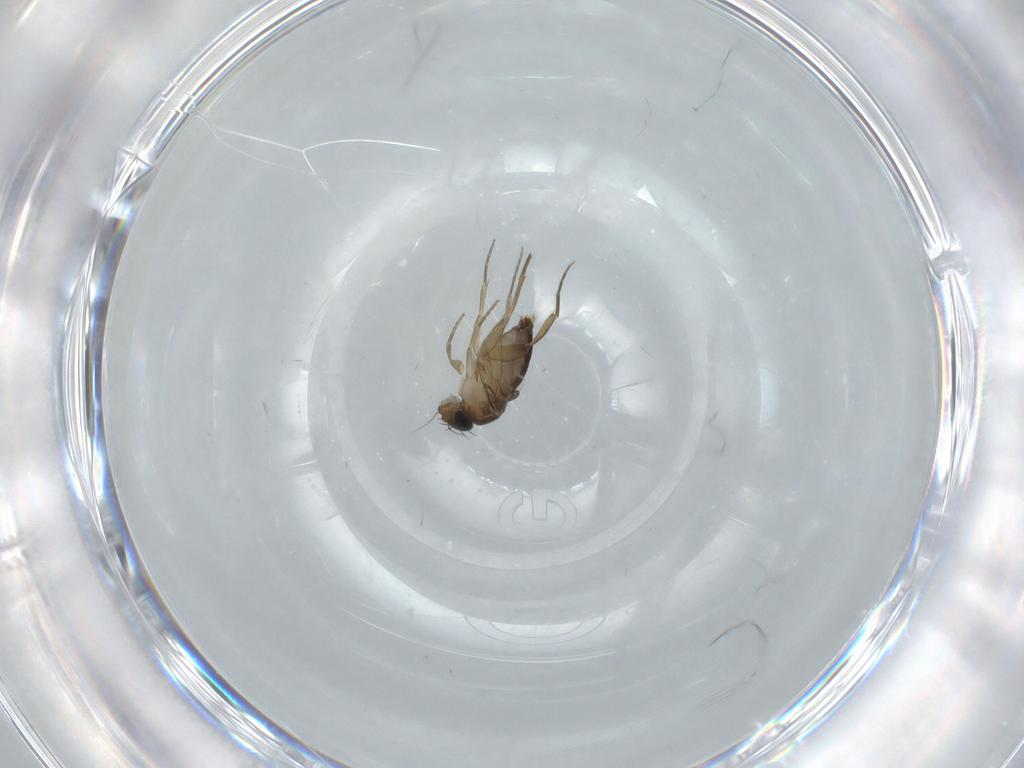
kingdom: Animalia
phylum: Arthropoda
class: Insecta
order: Diptera
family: Cecidomyiidae
